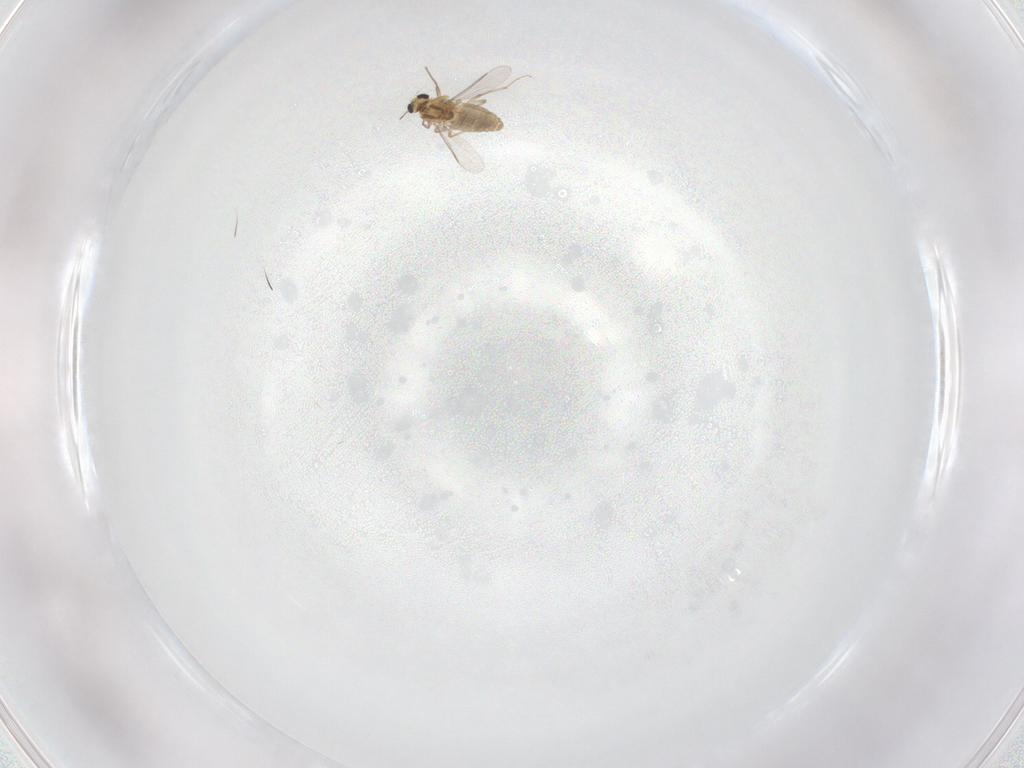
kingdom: Animalia
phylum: Arthropoda
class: Insecta
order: Diptera
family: Chironomidae
